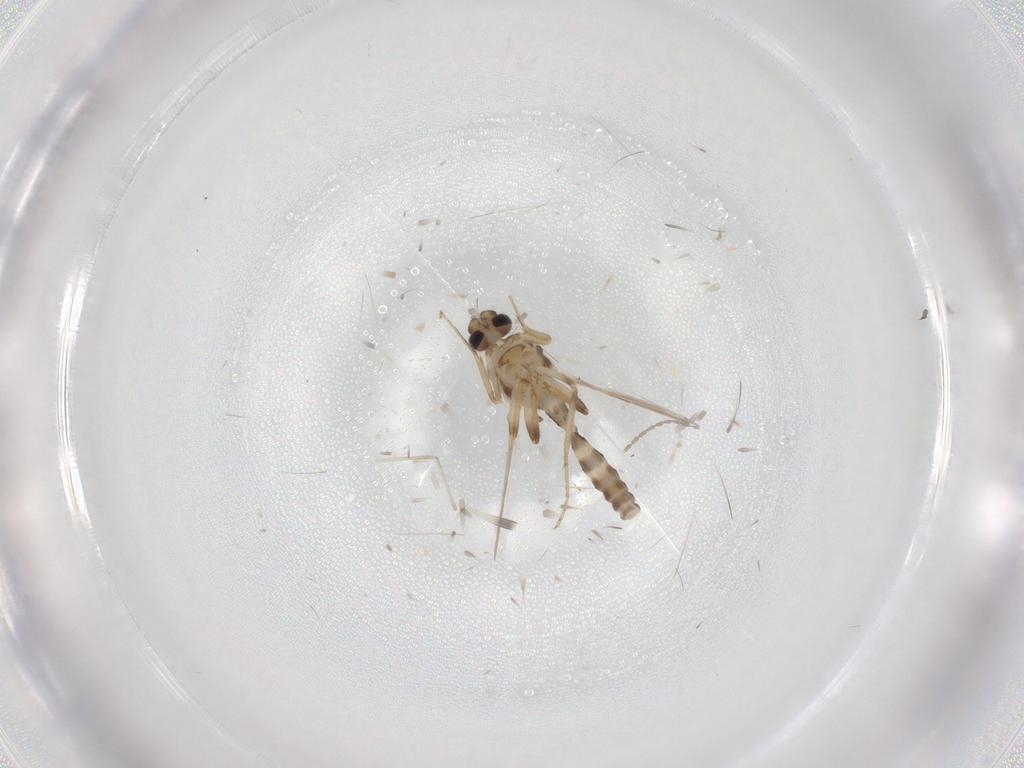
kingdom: Animalia
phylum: Arthropoda
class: Insecta
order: Diptera
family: Ceratopogonidae
